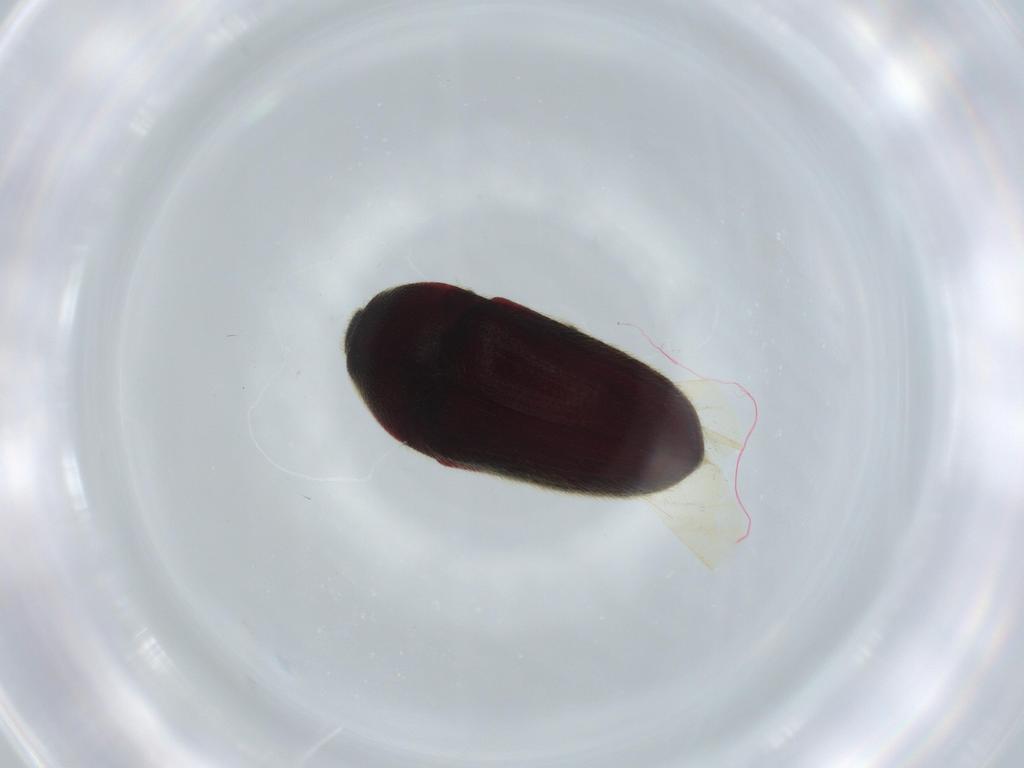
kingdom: Animalia
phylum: Arthropoda
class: Insecta
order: Coleoptera
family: Throscidae
